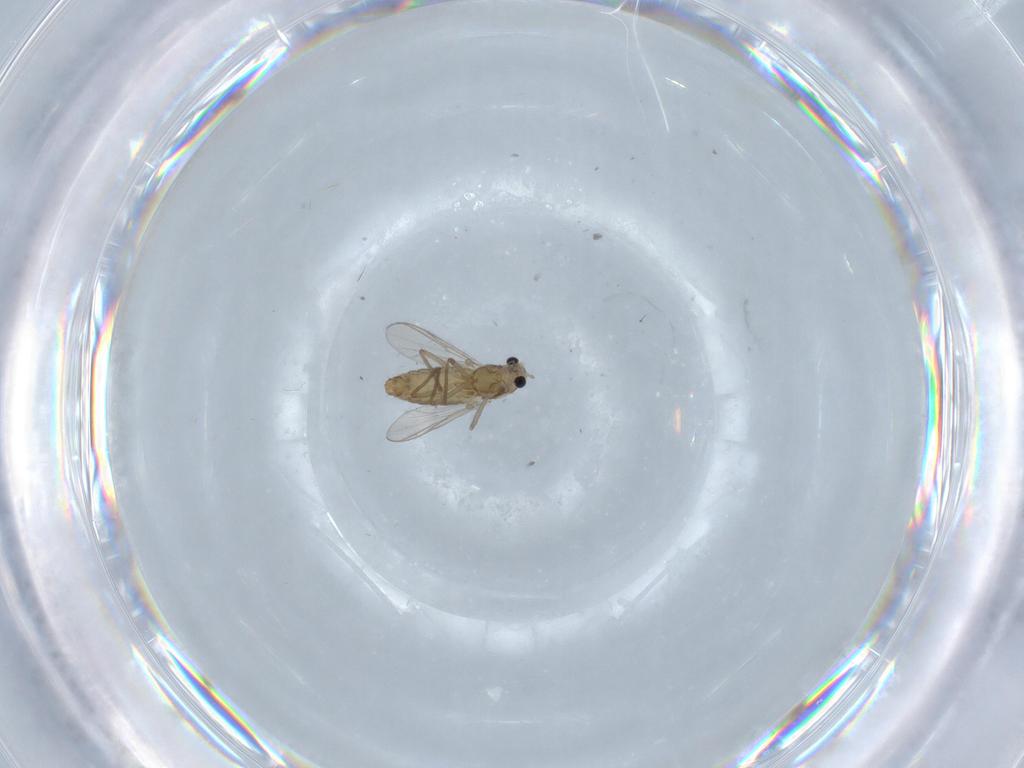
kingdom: Animalia
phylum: Arthropoda
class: Insecta
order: Diptera
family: Chironomidae
